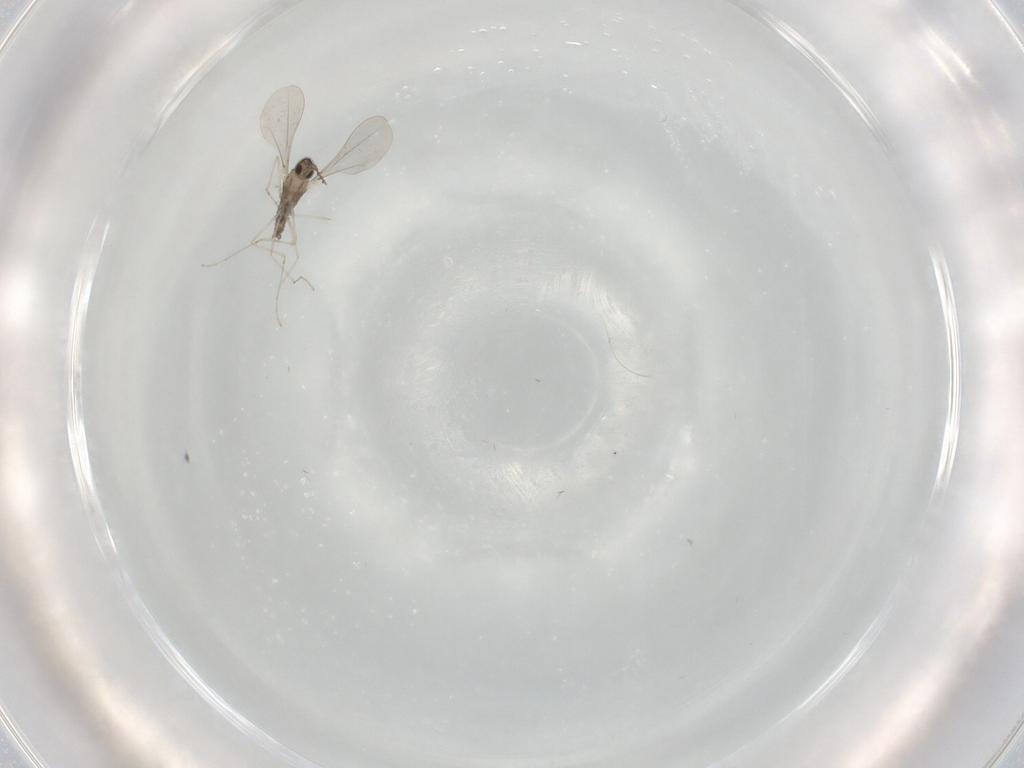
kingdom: Animalia
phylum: Arthropoda
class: Insecta
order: Diptera
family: Cecidomyiidae
